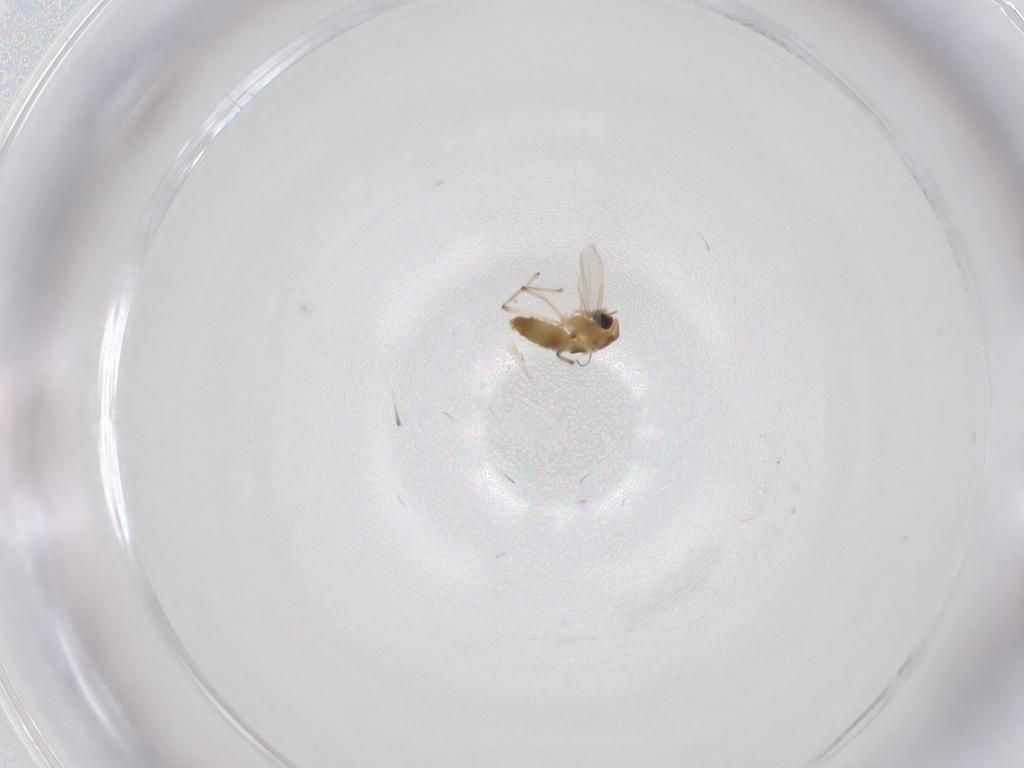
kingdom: Animalia
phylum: Arthropoda
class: Insecta
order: Diptera
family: Chironomidae
